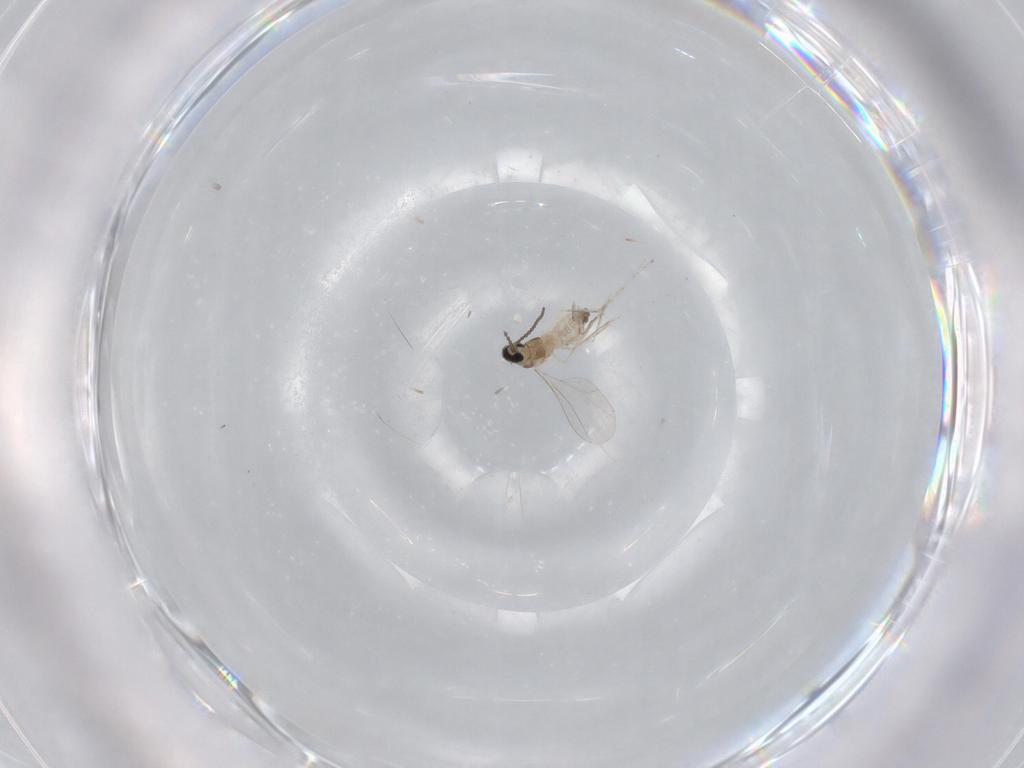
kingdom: Animalia
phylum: Arthropoda
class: Insecta
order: Diptera
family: Cecidomyiidae
